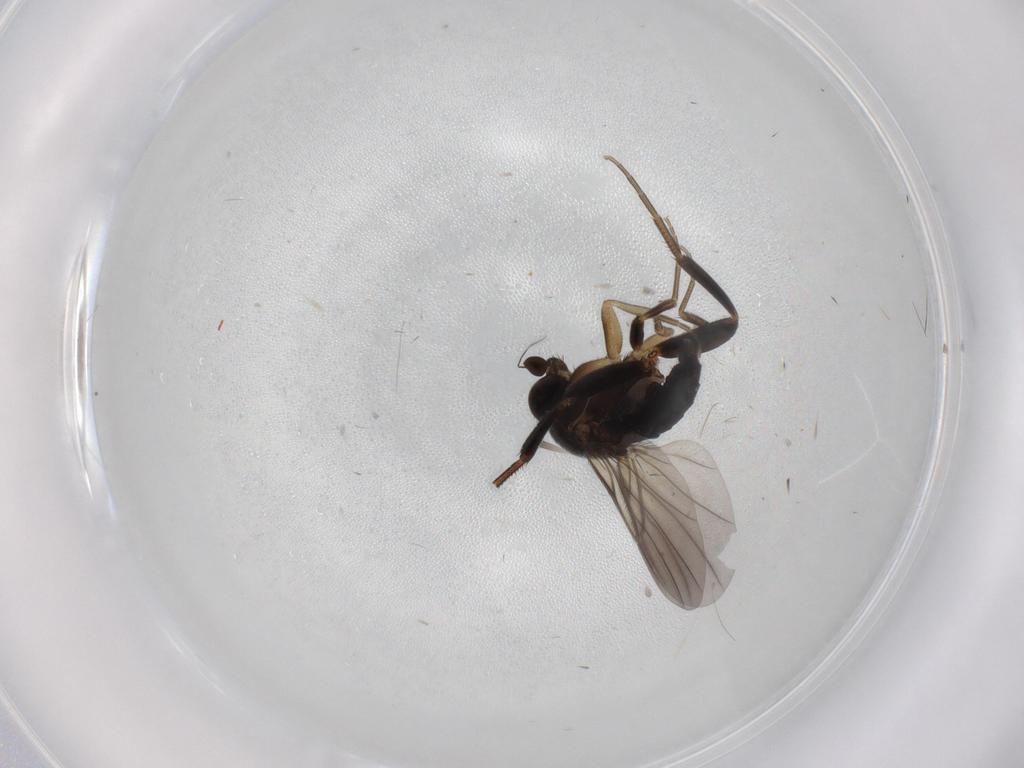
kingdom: Animalia
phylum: Arthropoda
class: Insecta
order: Diptera
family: Phoridae
